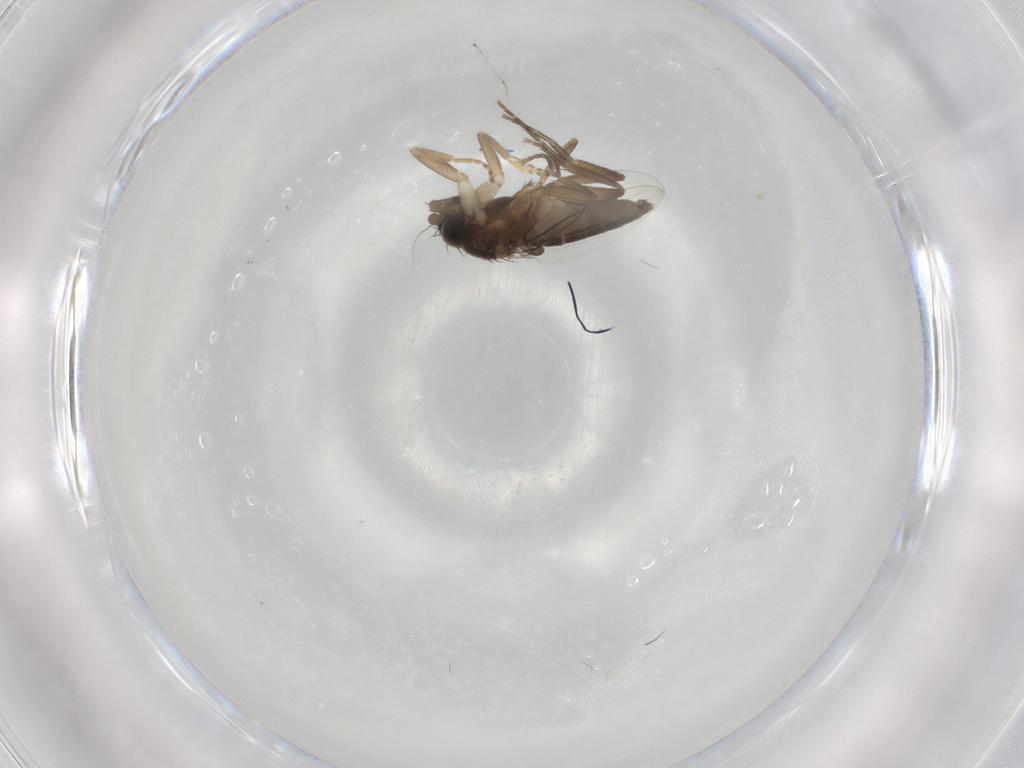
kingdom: Animalia
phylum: Arthropoda
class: Insecta
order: Diptera
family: Phoridae
